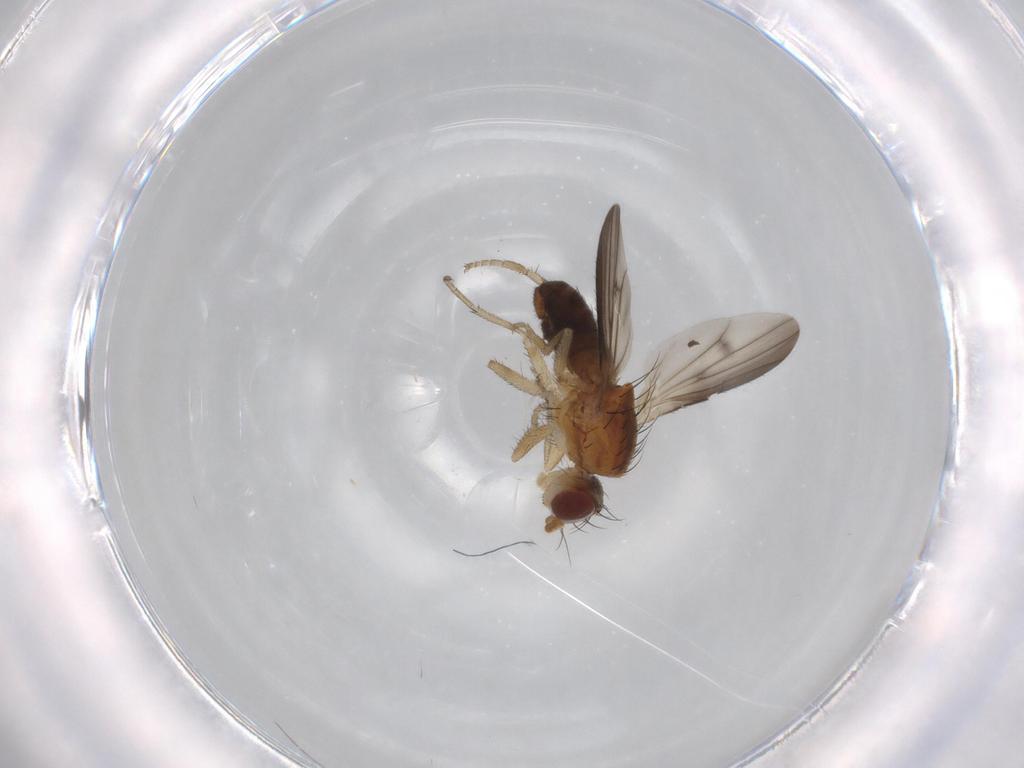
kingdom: Animalia
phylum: Arthropoda
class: Insecta
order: Diptera
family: Heleomyzidae
